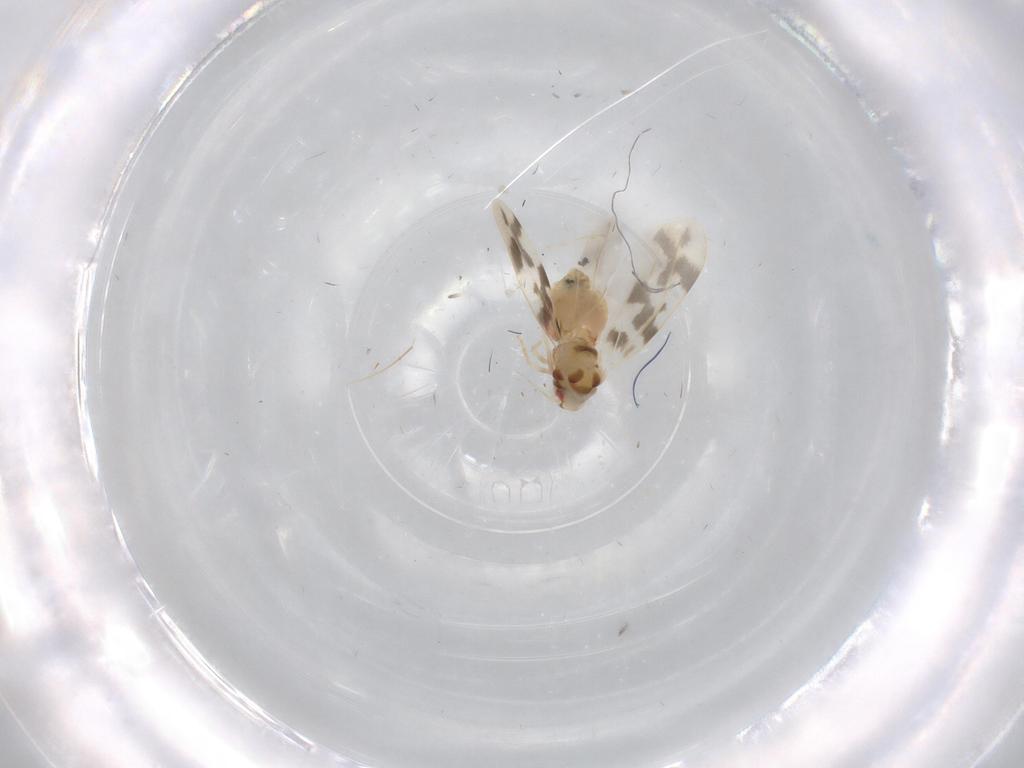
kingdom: Animalia
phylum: Arthropoda
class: Insecta
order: Hemiptera
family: Aleyrodidae
